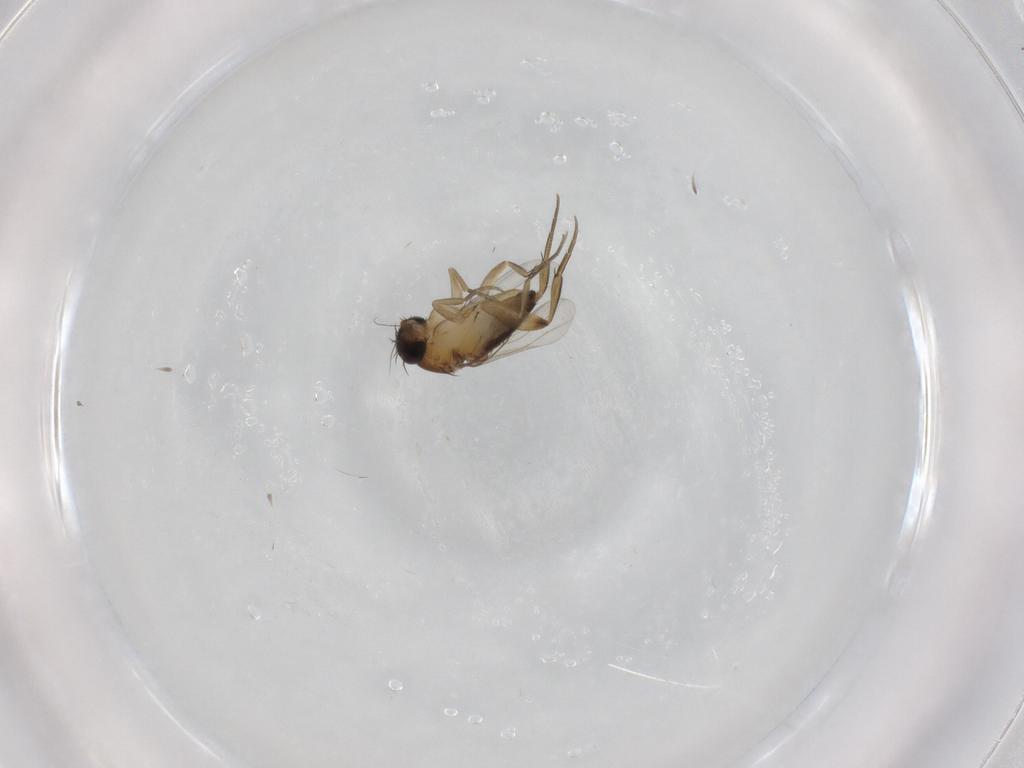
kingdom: Animalia
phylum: Arthropoda
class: Insecta
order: Diptera
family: Phoridae
